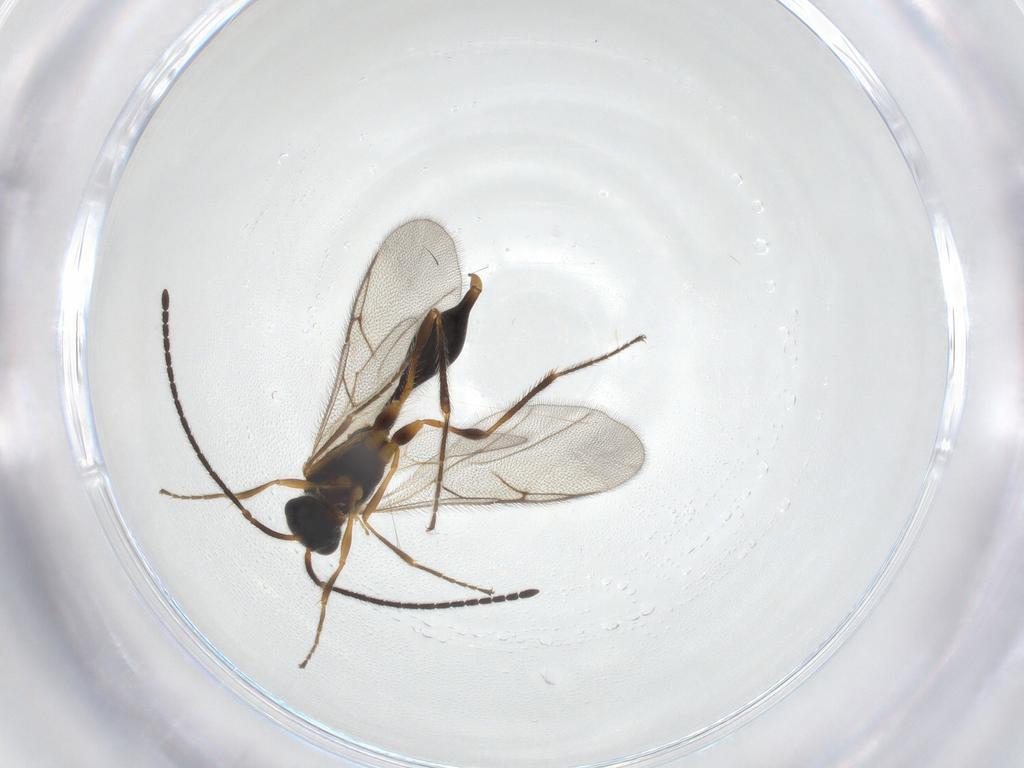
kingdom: Animalia
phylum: Arthropoda
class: Insecta
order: Hymenoptera
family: Diapriidae
